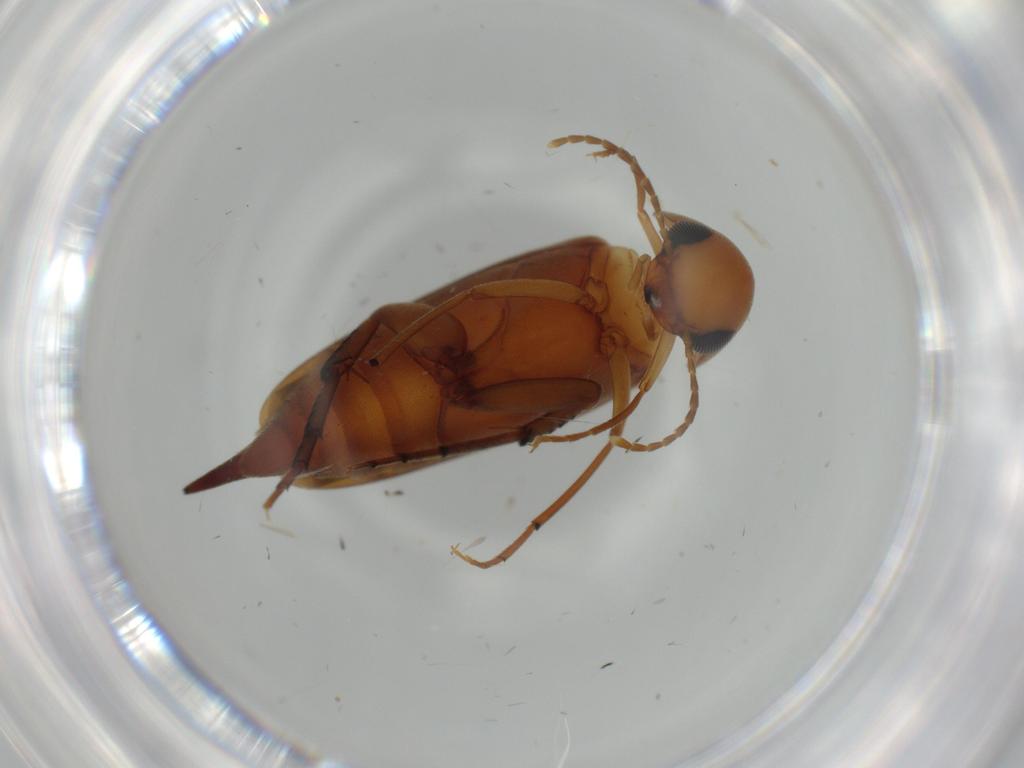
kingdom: Animalia
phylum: Arthropoda
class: Insecta
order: Coleoptera
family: Mordellidae
